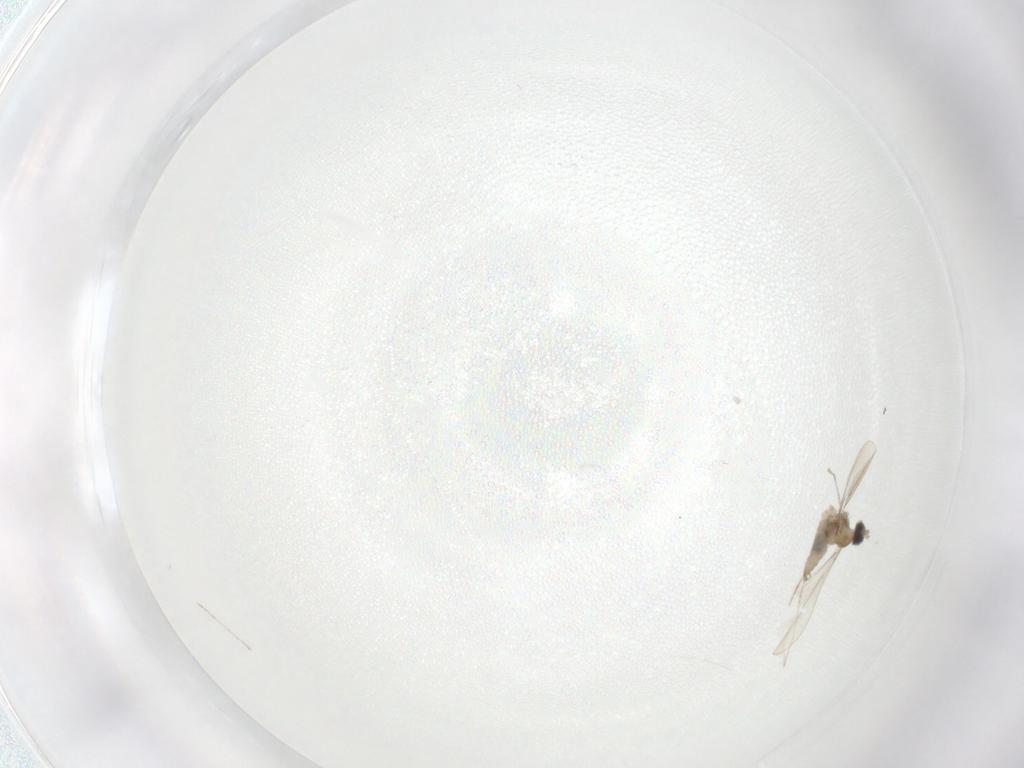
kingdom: Animalia
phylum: Arthropoda
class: Insecta
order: Diptera
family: Cecidomyiidae
